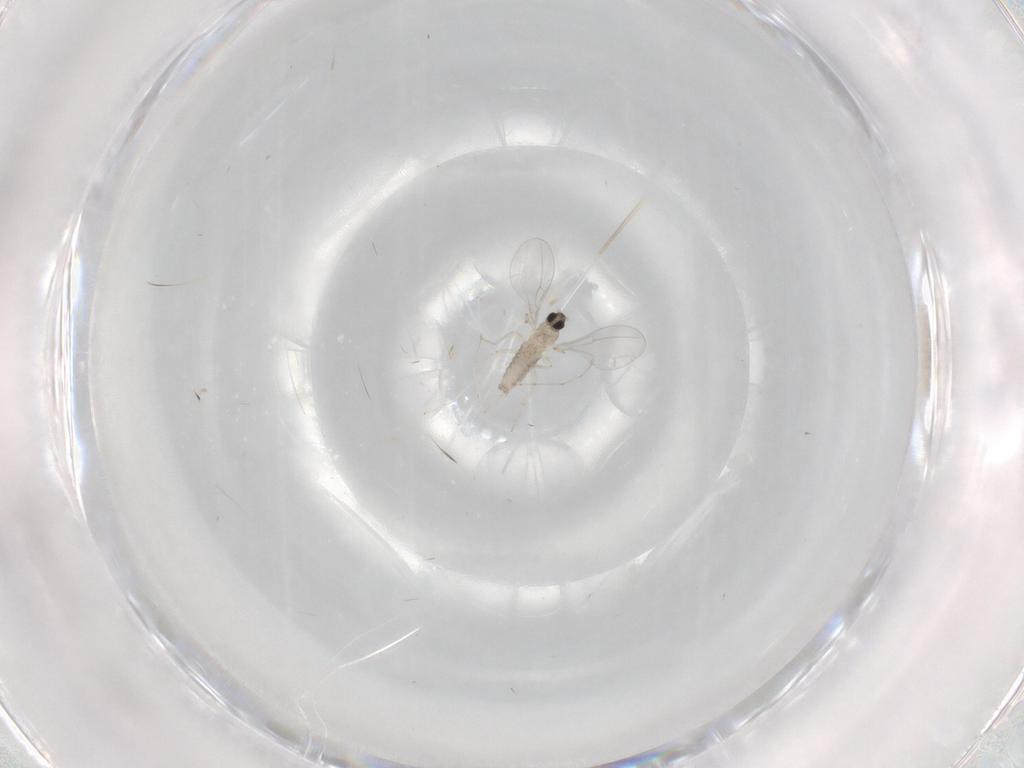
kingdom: Animalia
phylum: Arthropoda
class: Insecta
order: Diptera
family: Cecidomyiidae
